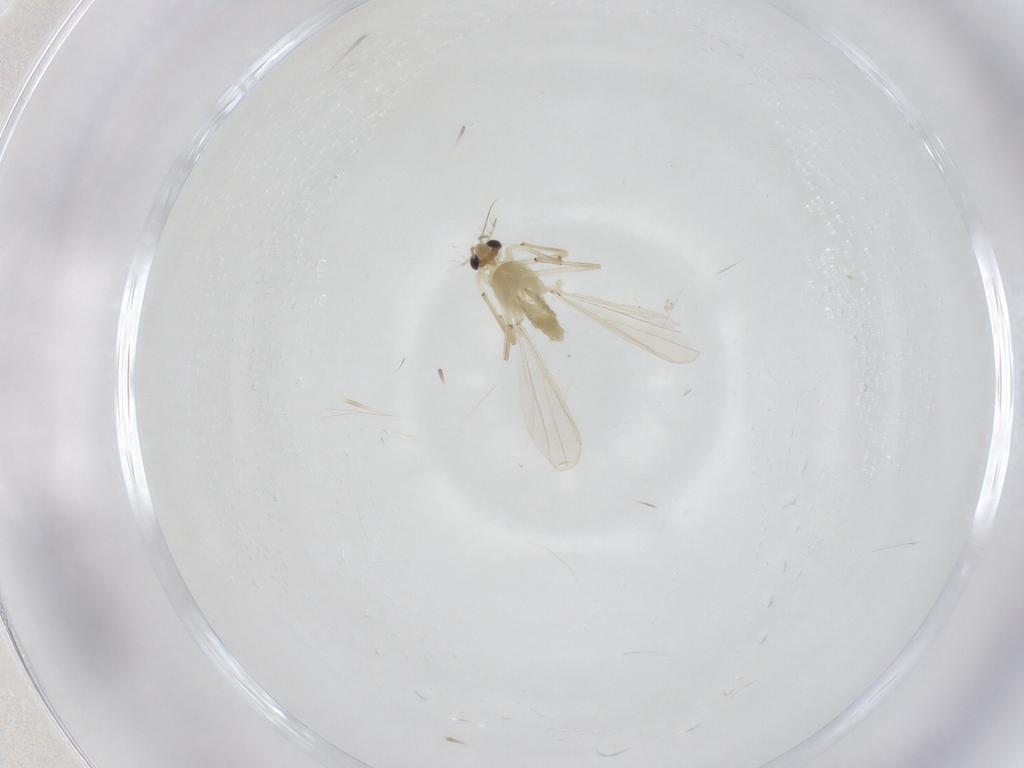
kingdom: Animalia
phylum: Arthropoda
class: Insecta
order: Diptera
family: Chironomidae
